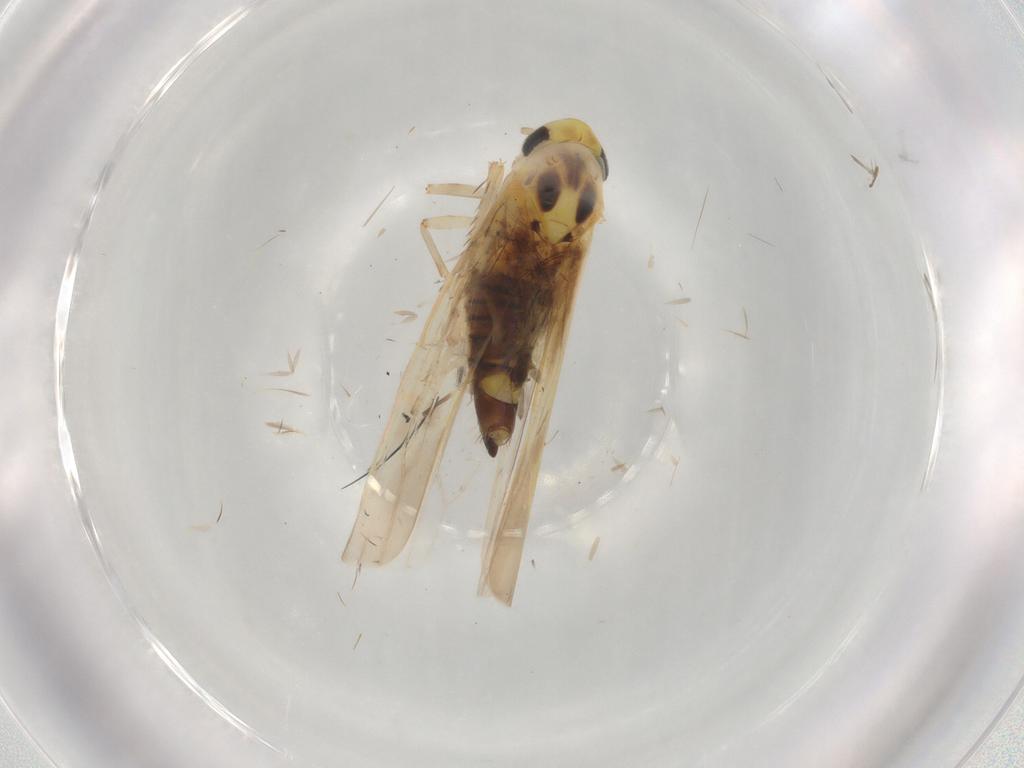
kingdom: Animalia
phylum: Arthropoda
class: Insecta
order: Hemiptera
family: Cicadellidae
